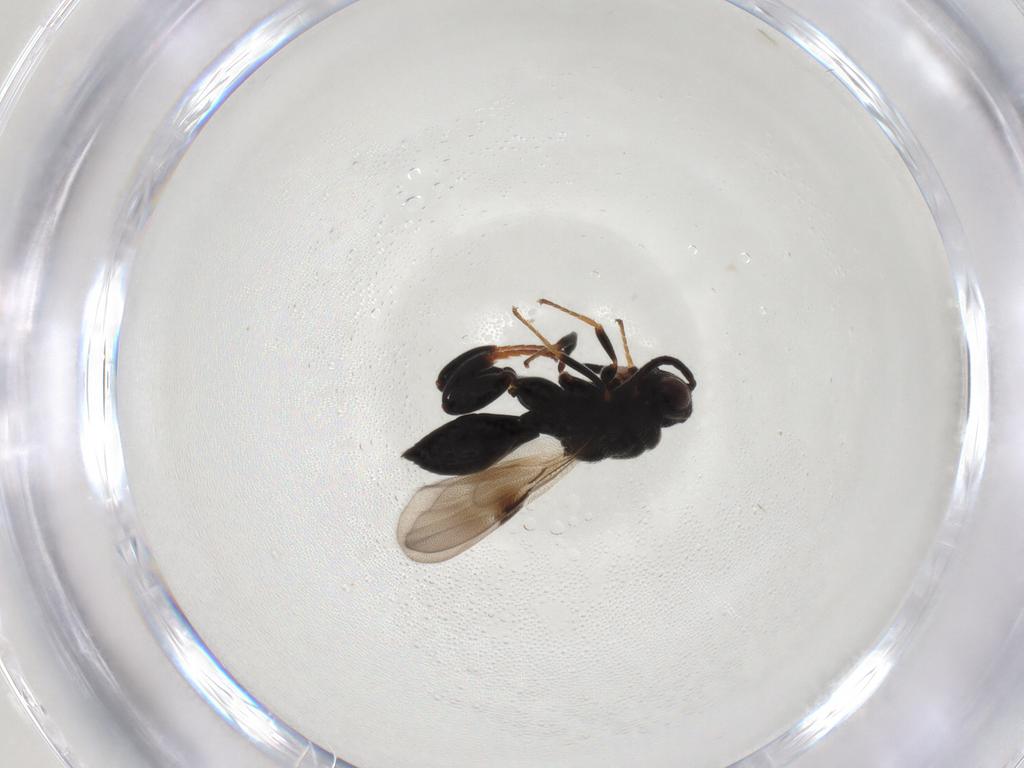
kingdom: Animalia
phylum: Arthropoda
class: Insecta
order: Hymenoptera
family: Chalcididae
